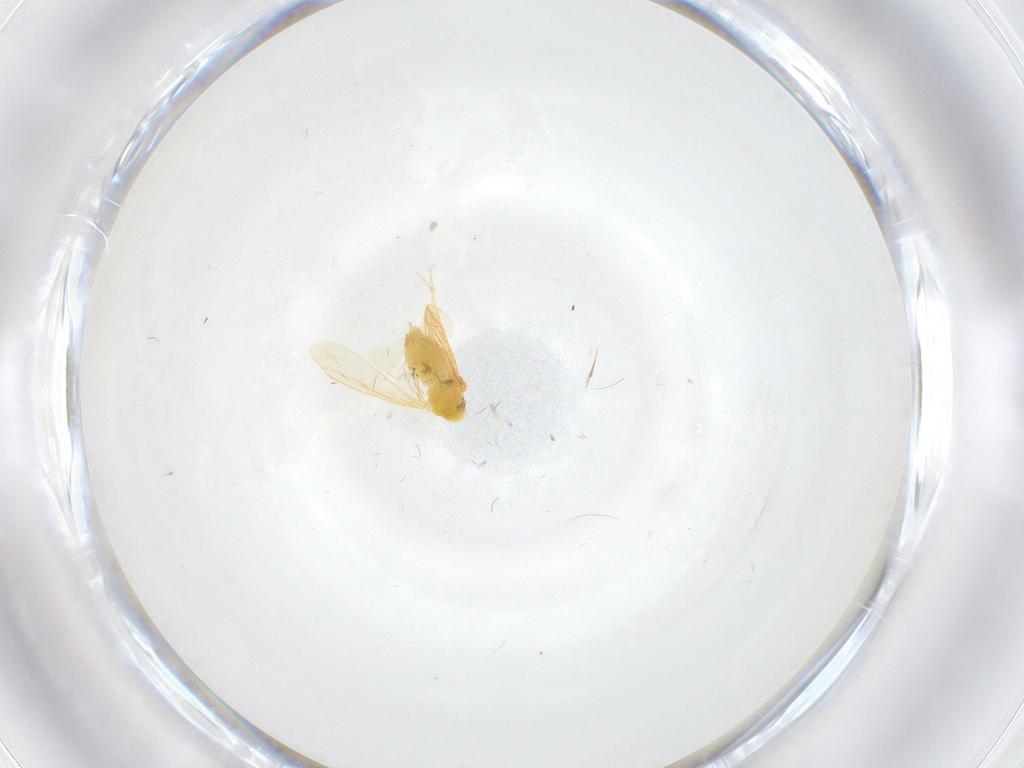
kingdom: Animalia
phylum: Arthropoda
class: Insecta
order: Hemiptera
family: Aleyrodidae
